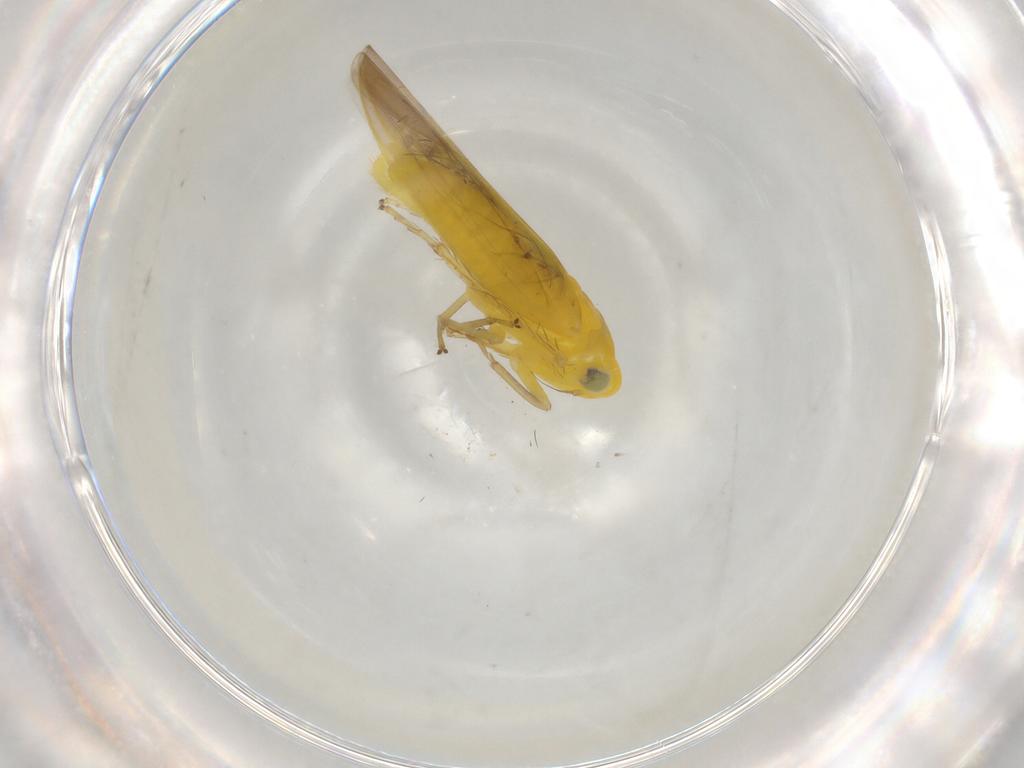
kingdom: Animalia
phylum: Arthropoda
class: Insecta
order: Hemiptera
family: Cicadellidae
